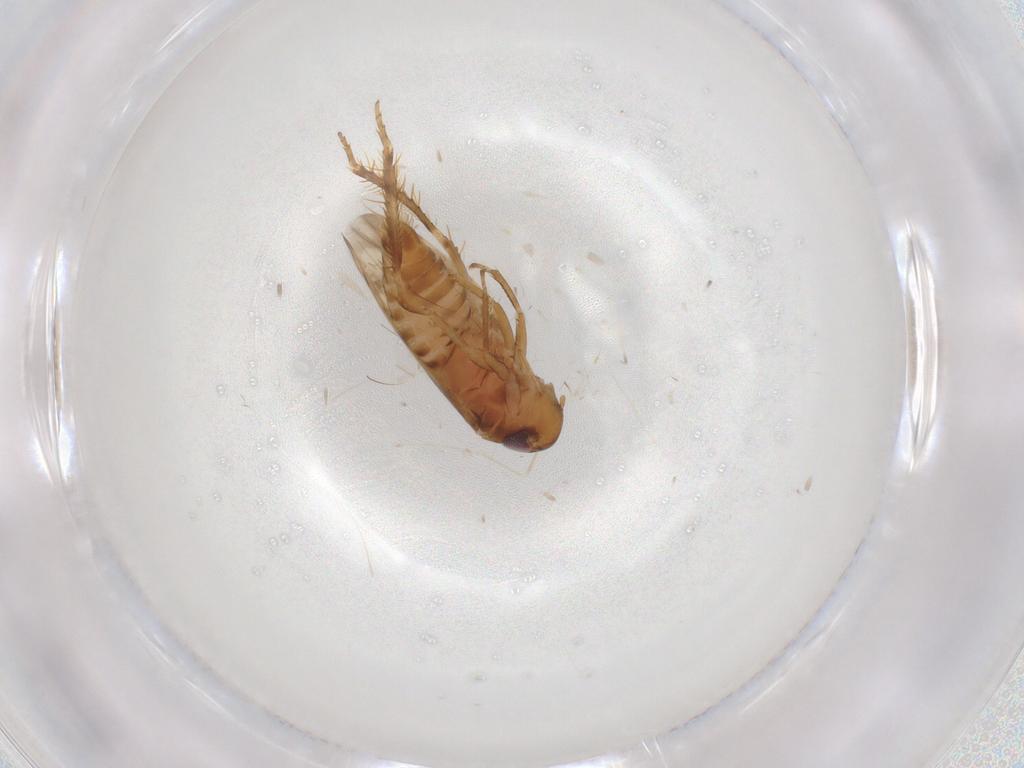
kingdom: Animalia
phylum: Arthropoda
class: Insecta
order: Hemiptera
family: Cicadellidae
